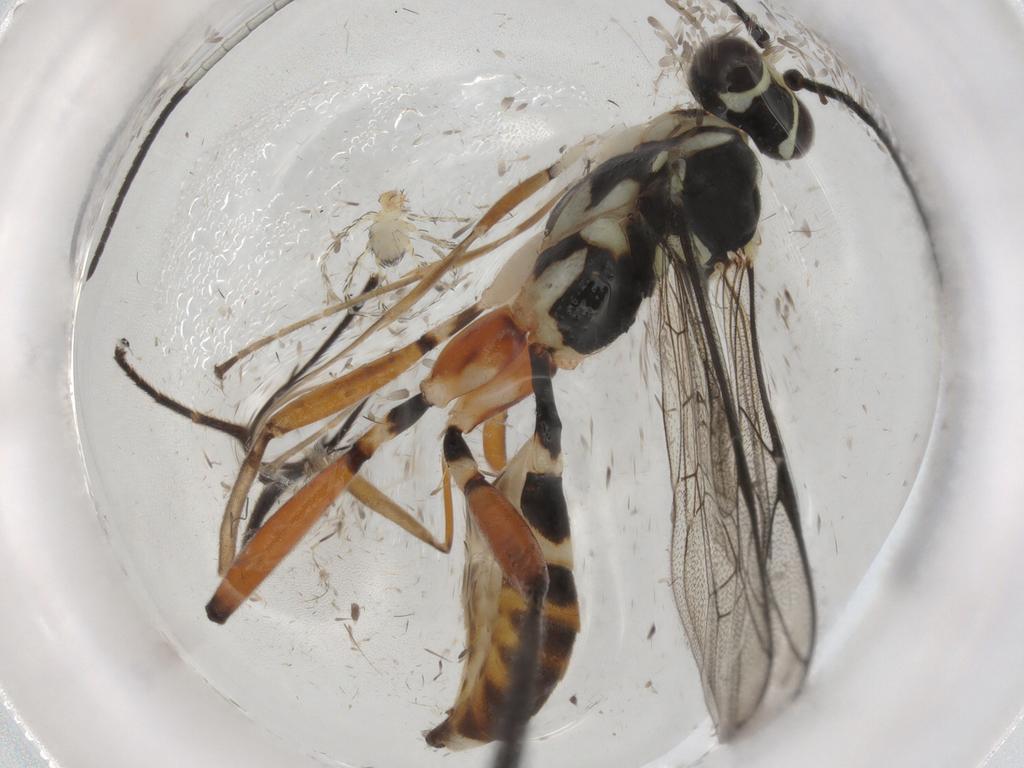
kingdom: Animalia
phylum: Arthropoda
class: Arachnida
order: Trombidiformes
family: Erythraeidae
